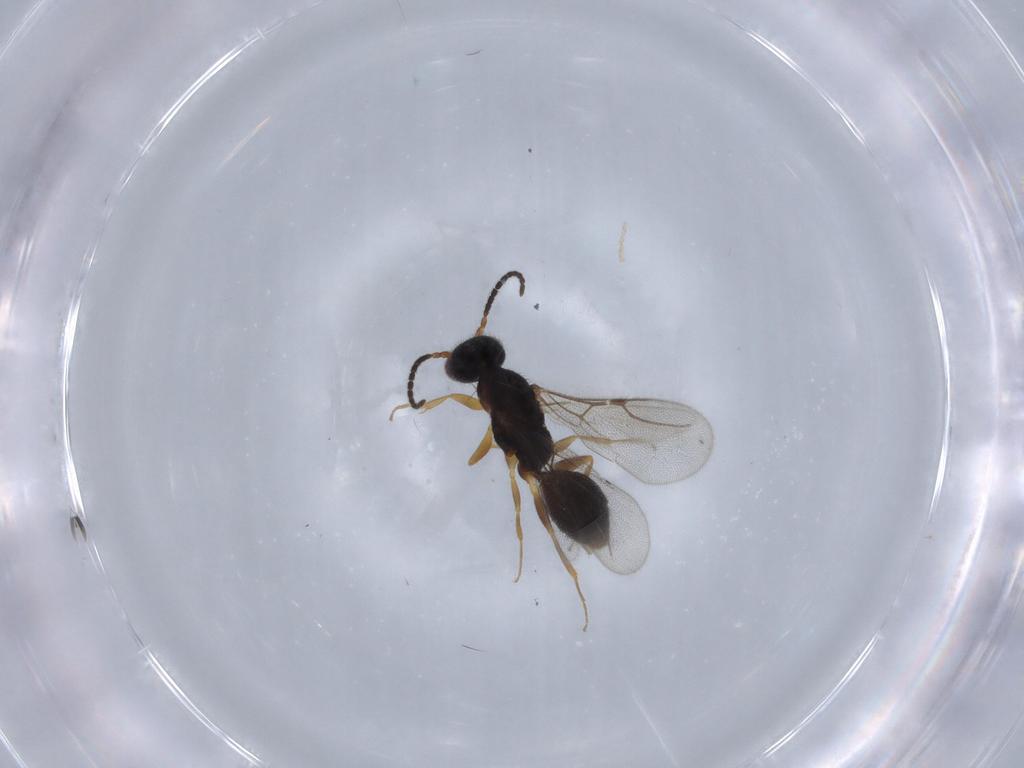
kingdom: Animalia
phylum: Arthropoda
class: Insecta
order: Hymenoptera
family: Bethylidae
